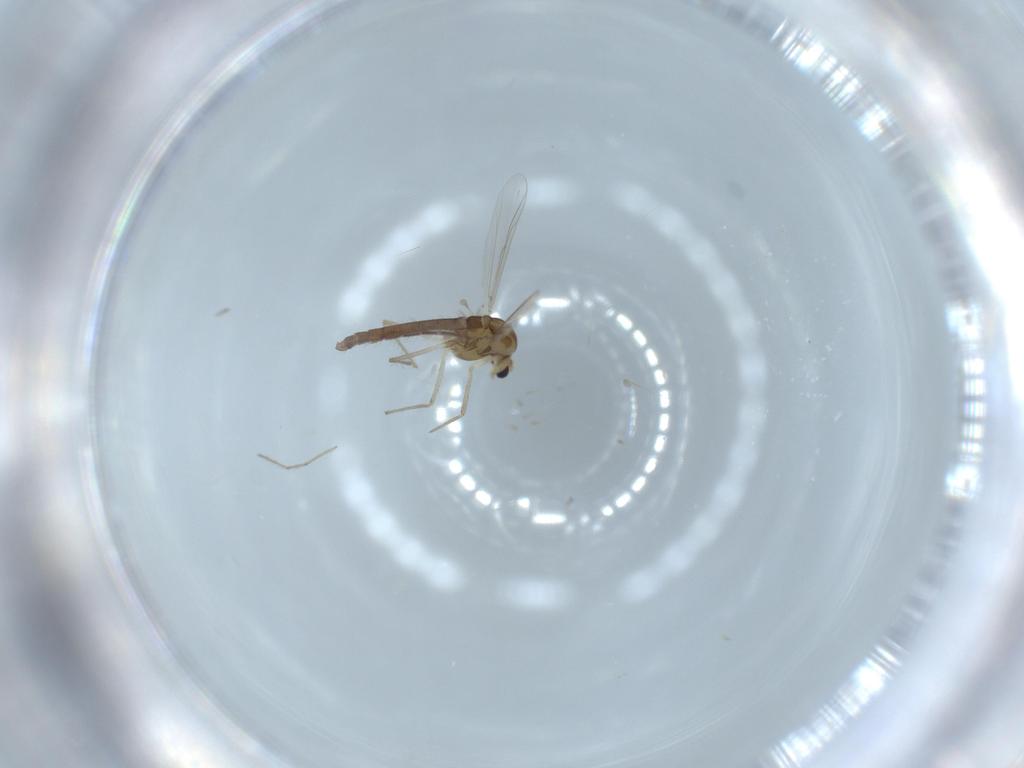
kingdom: Animalia
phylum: Arthropoda
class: Insecta
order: Diptera
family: Chironomidae
